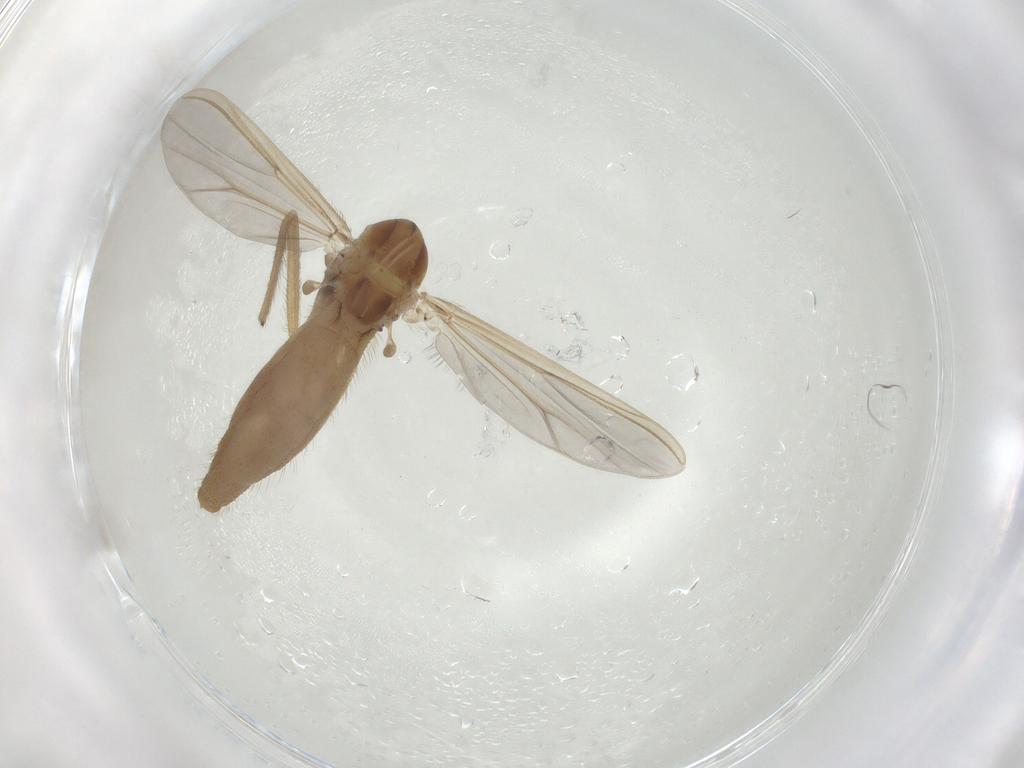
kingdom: Animalia
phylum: Arthropoda
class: Insecta
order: Diptera
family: Chironomidae
